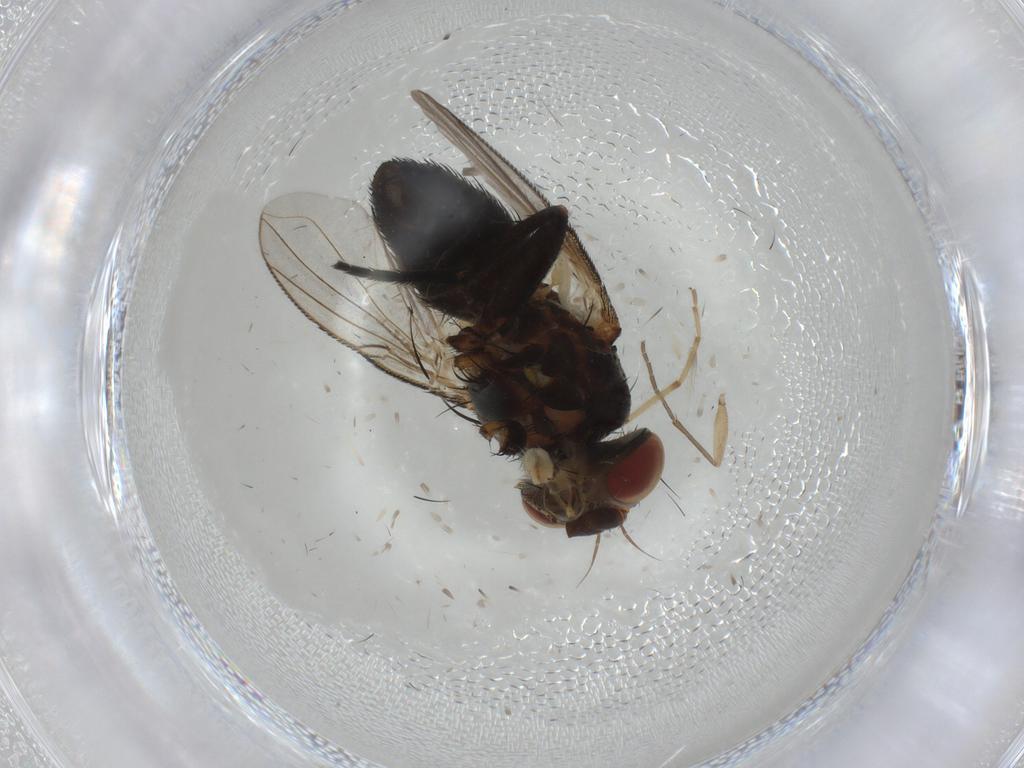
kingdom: Animalia
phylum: Arthropoda
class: Insecta
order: Diptera
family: Tachinidae
